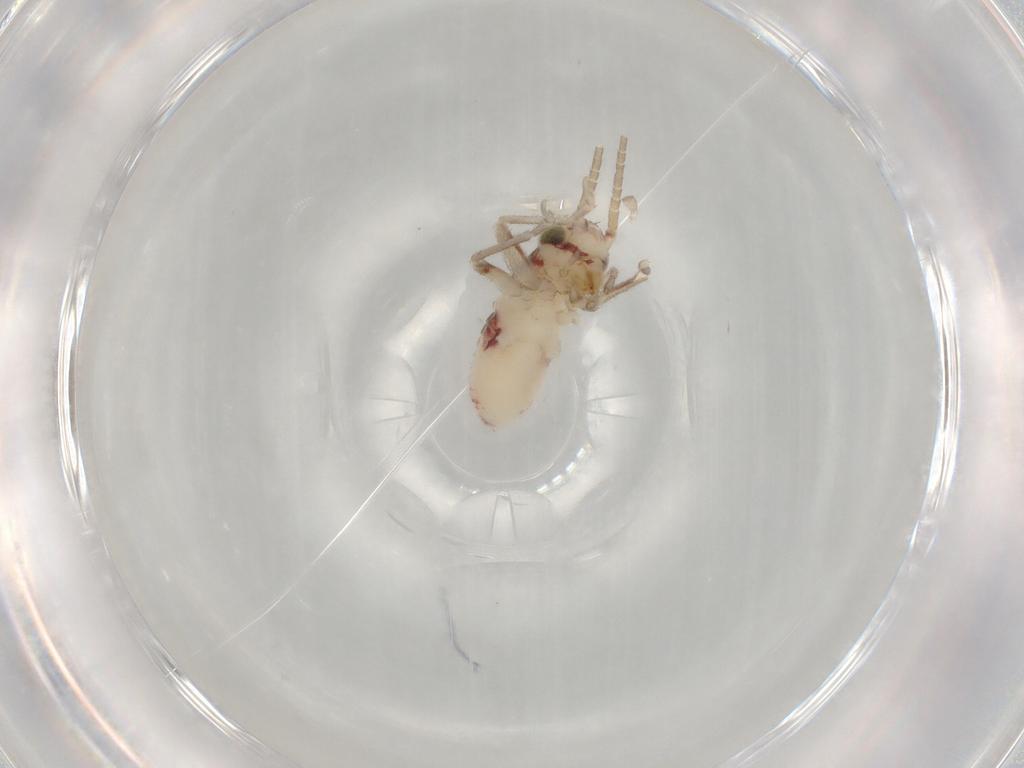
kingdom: Animalia
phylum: Arthropoda
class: Insecta
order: Orthoptera
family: Trigonidiidae
